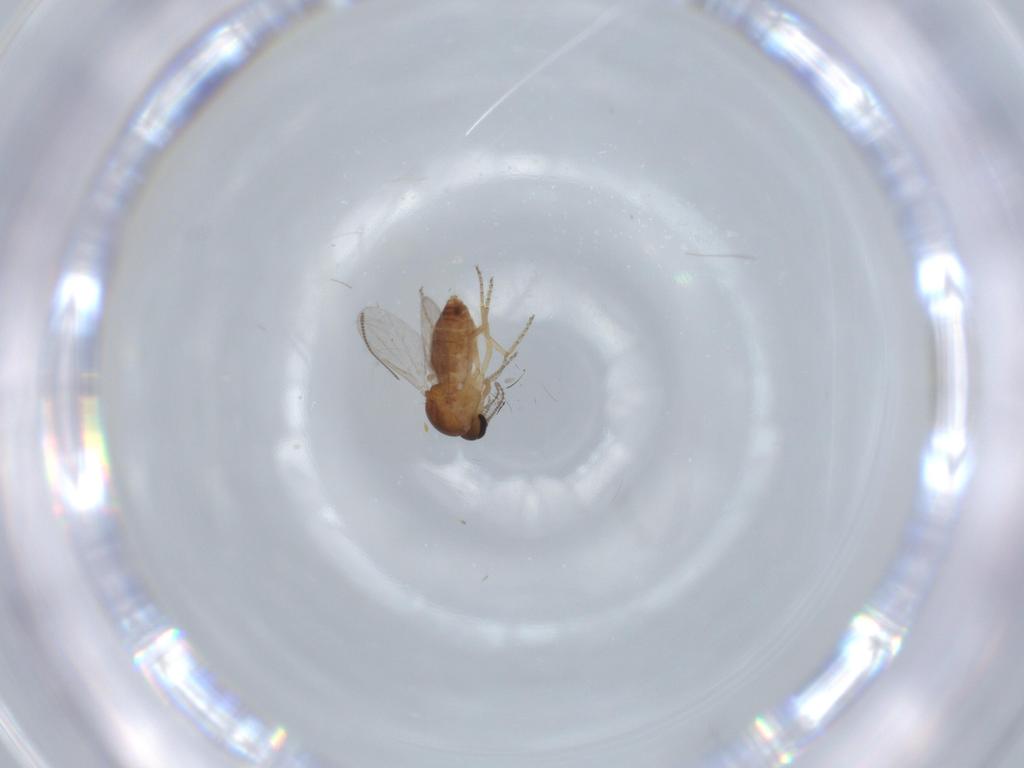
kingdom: Animalia
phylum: Arthropoda
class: Insecta
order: Diptera
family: Ceratopogonidae
